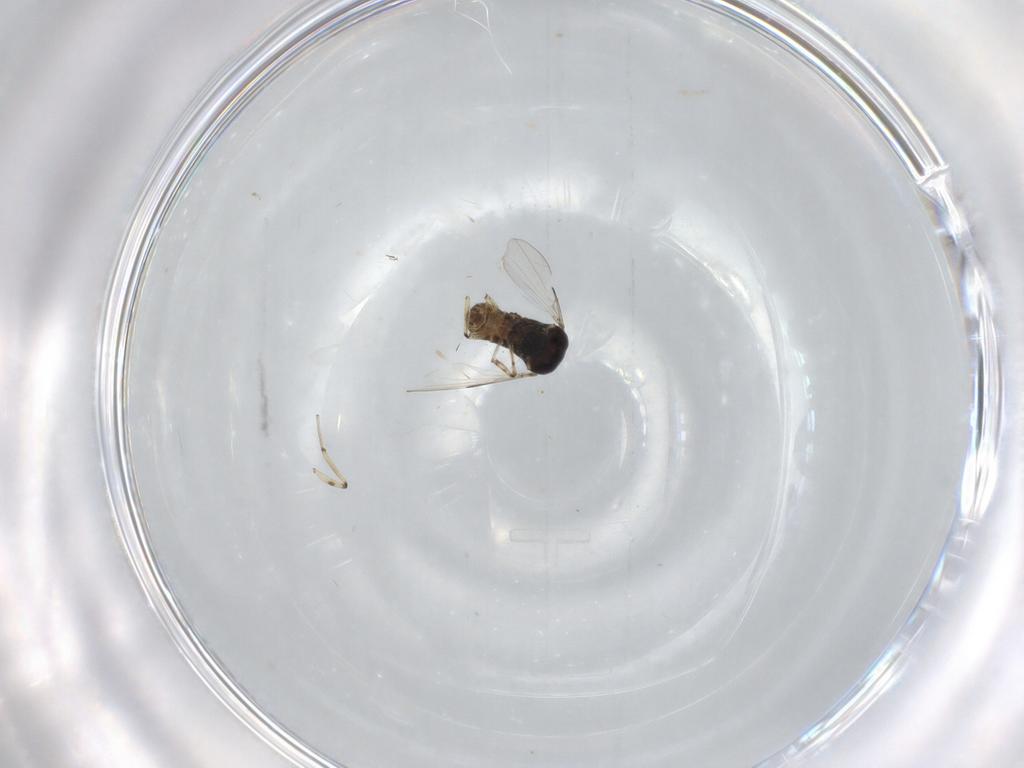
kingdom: Animalia
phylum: Arthropoda
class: Insecta
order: Diptera
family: Ceratopogonidae
